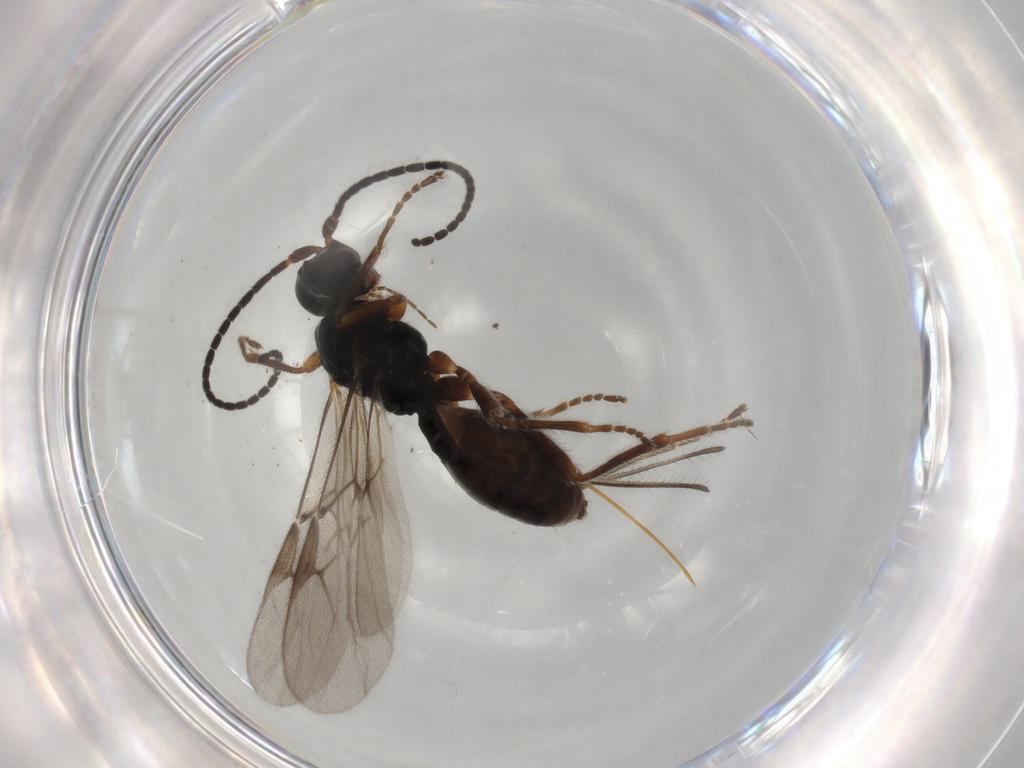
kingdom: Animalia
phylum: Arthropoda
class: Insecta
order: Hymenoptera
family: Braconidae
